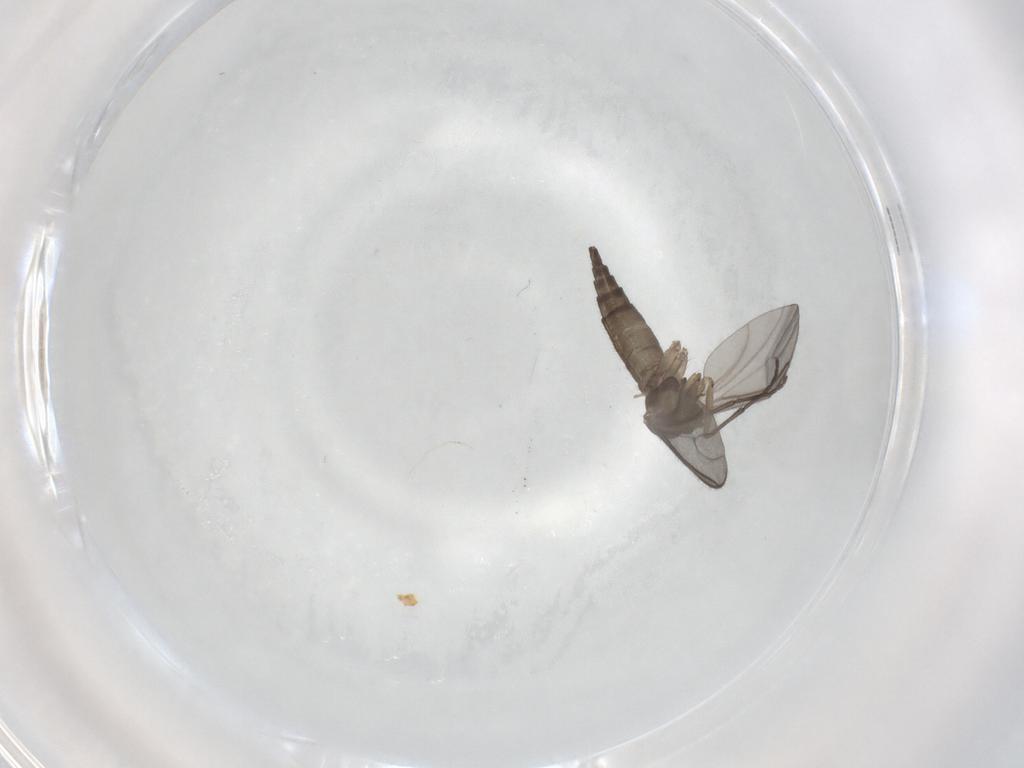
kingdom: Animalia
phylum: Arthropoda
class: Insecta
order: Diptera
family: Sciaridae
